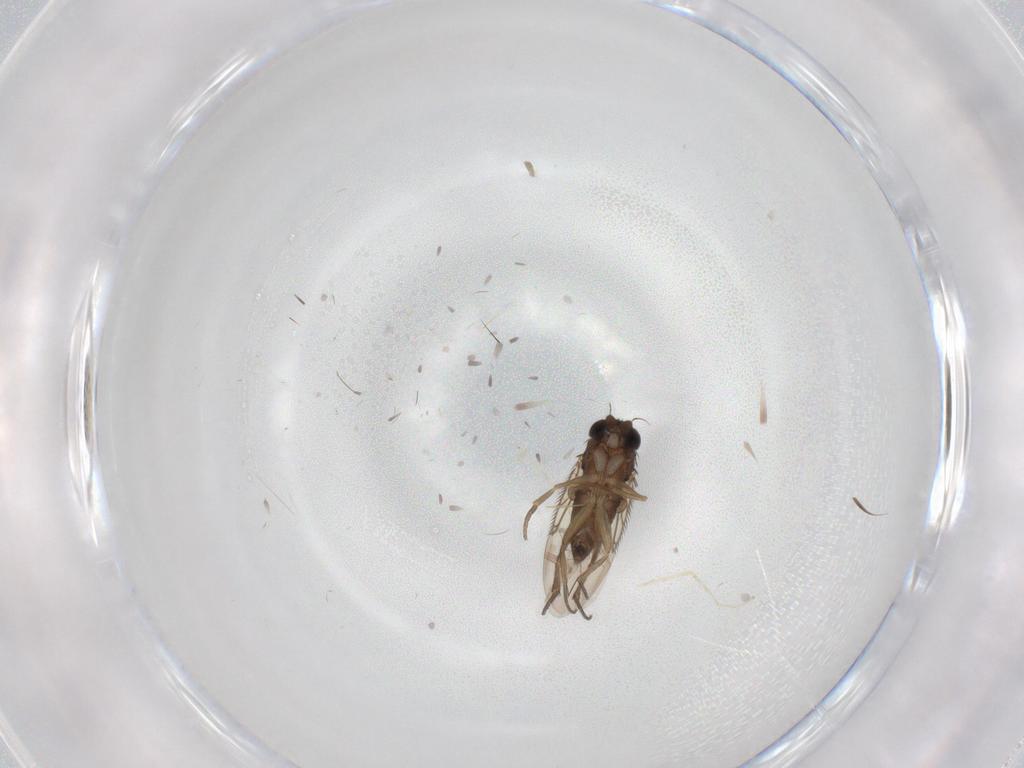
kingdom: Animalia
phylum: Arthropoda
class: Insecta
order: Diptera
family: Phoridae
